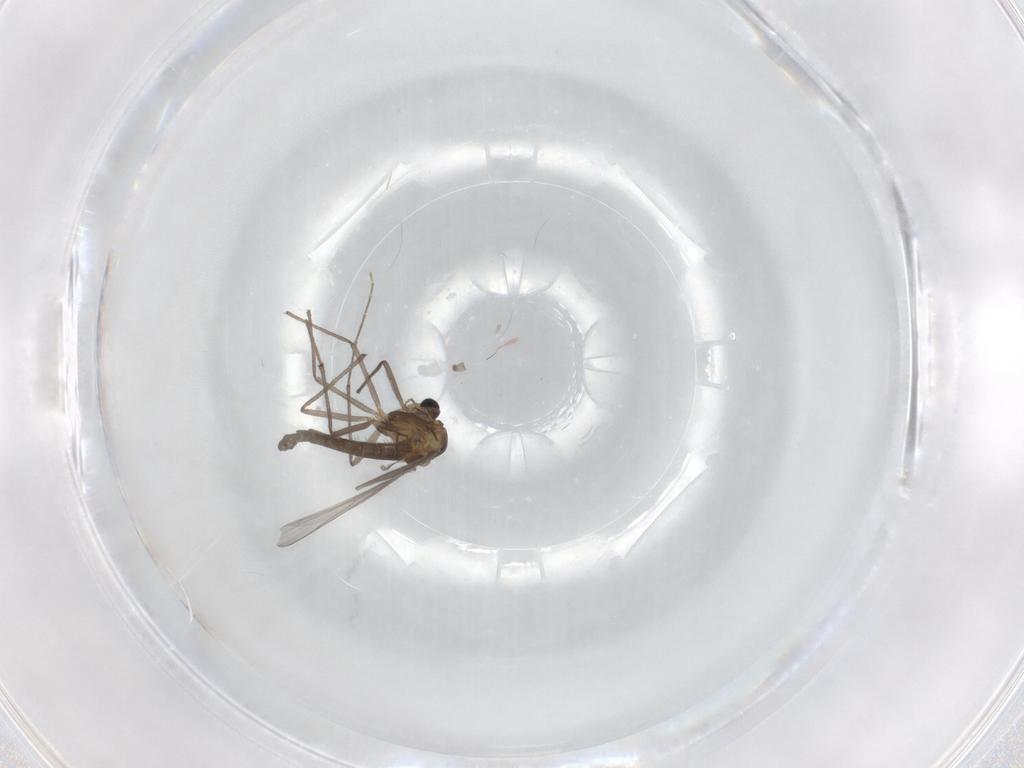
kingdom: Animalia
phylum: Arthropoda
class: Insecta
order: Diptera
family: Chironomidae
